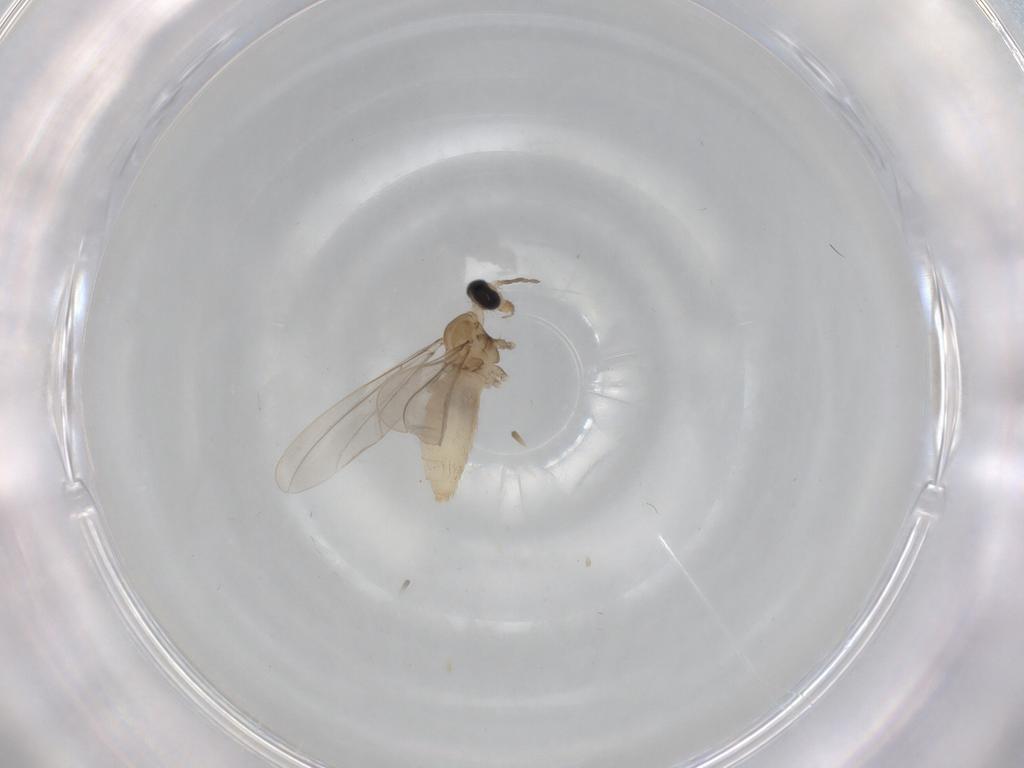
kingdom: Animalia
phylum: Arthropoda
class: Insecta
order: Diptera
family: Cecidomyiidae
